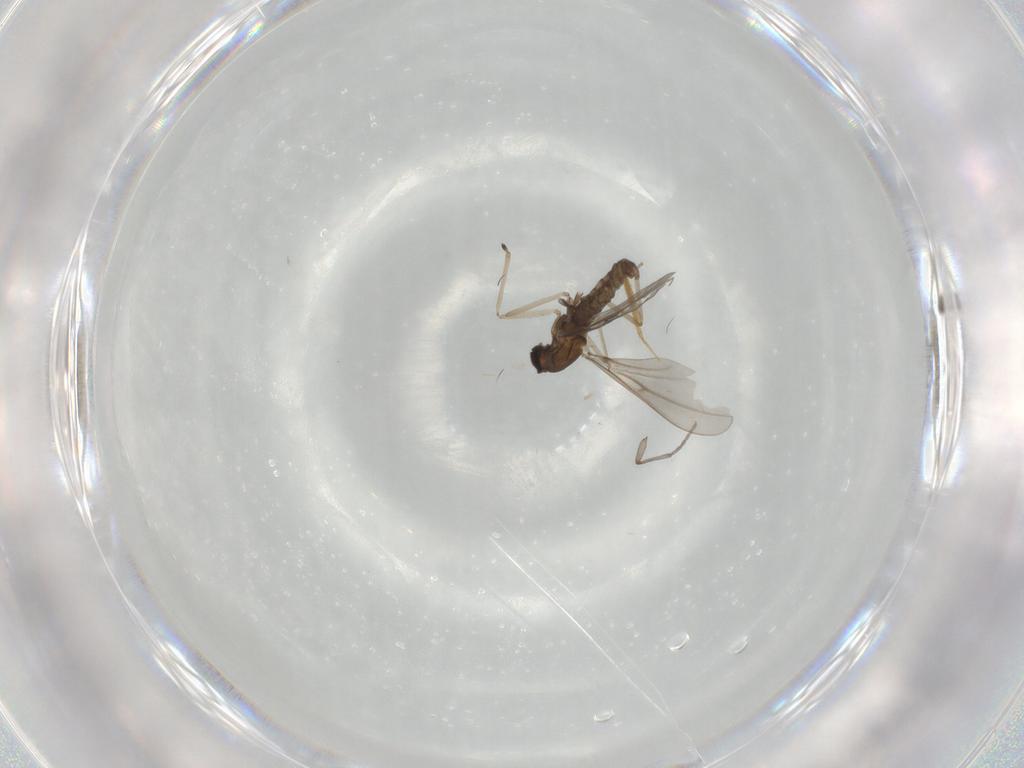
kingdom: Animalia
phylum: Arthropoda
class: Insecta
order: Diptera
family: Sciaridae
